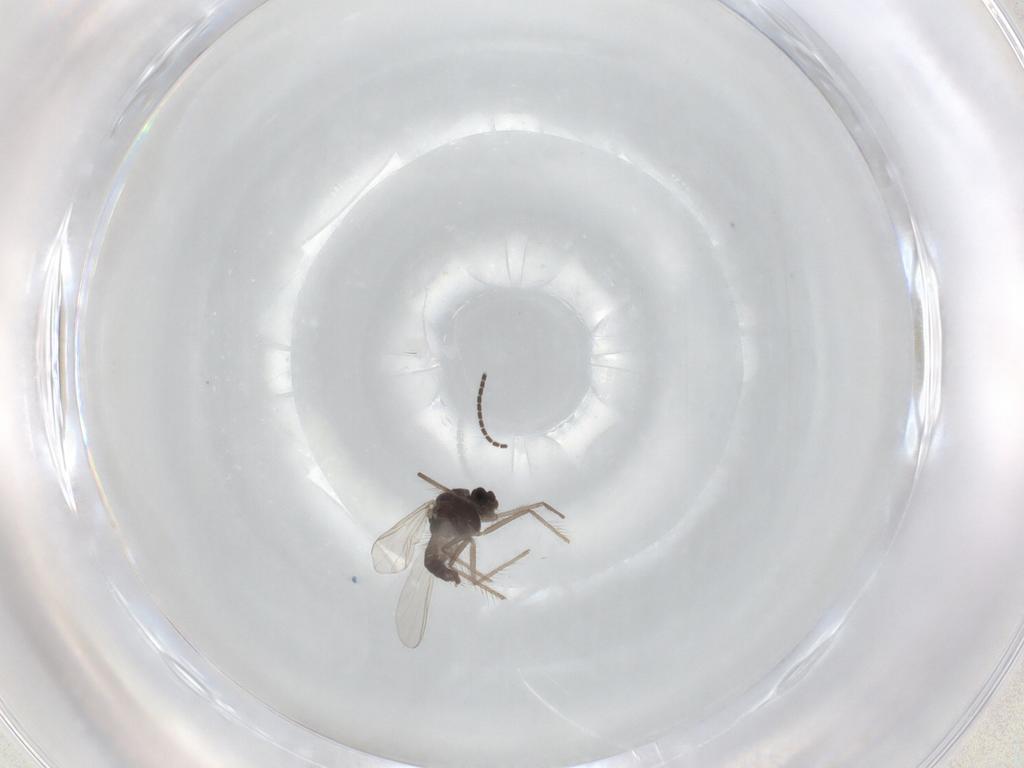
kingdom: Animalia
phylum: Arthropoda
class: Insecta
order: Diptera
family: Chironomidae
